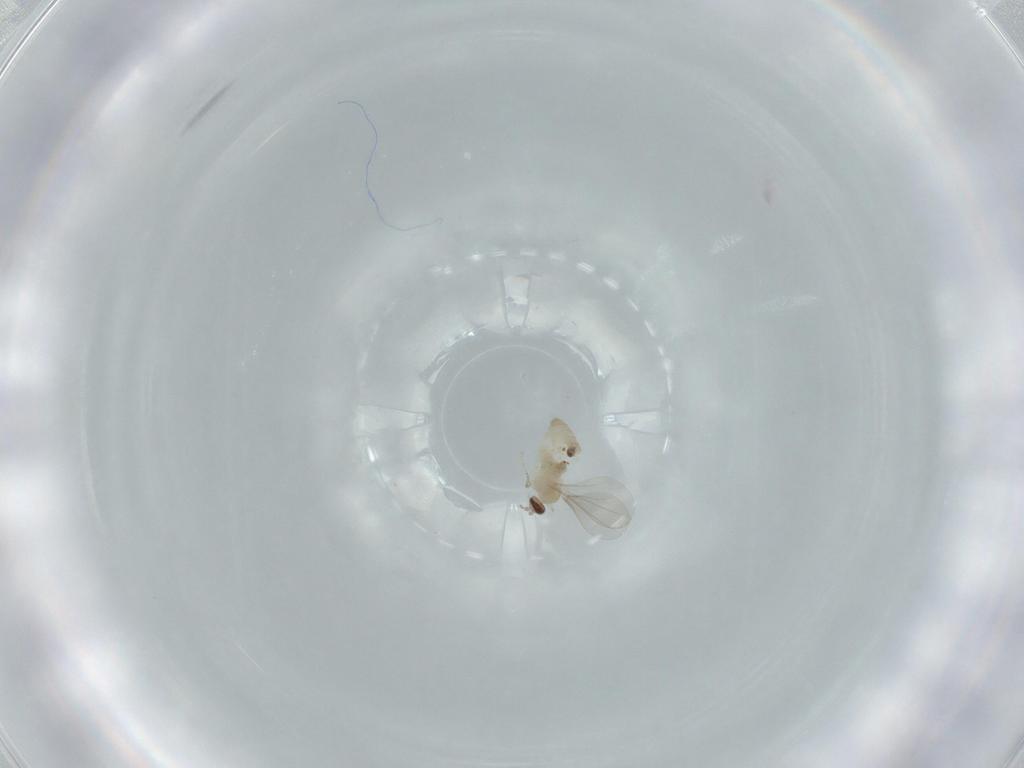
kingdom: Animalia
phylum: Arthropoda
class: Insecta
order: Diptera
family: Cecidomyiidae
